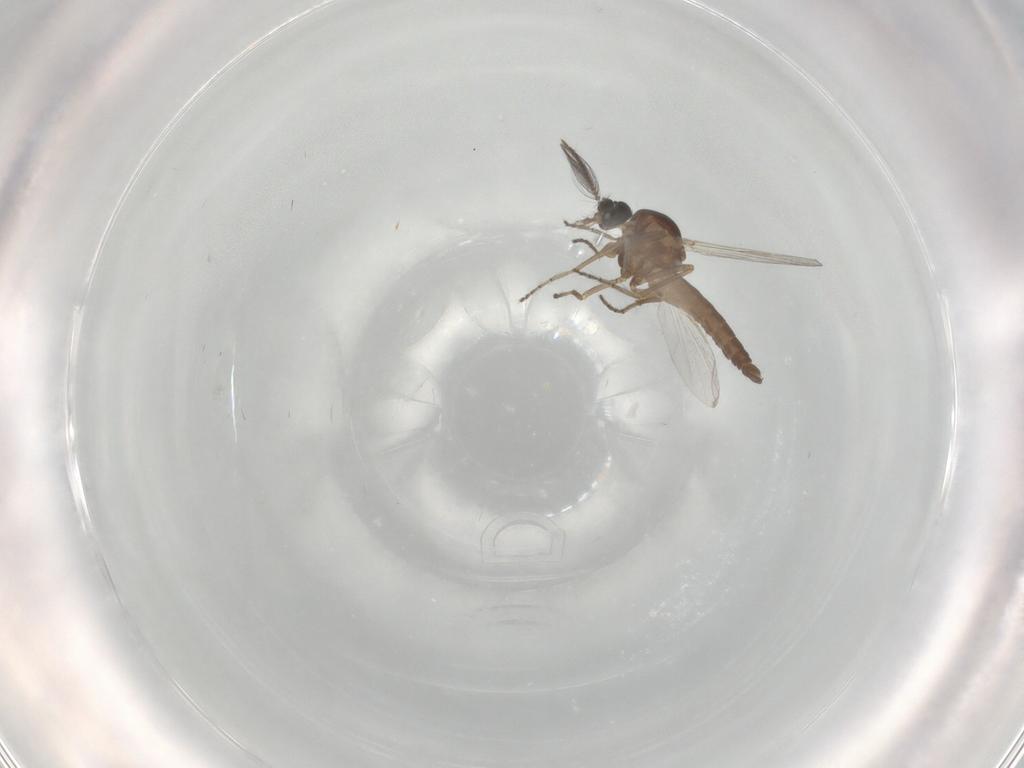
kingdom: Animalia
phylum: Arthropoda
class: Insecta
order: Diptera
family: Ceratopogonidae
